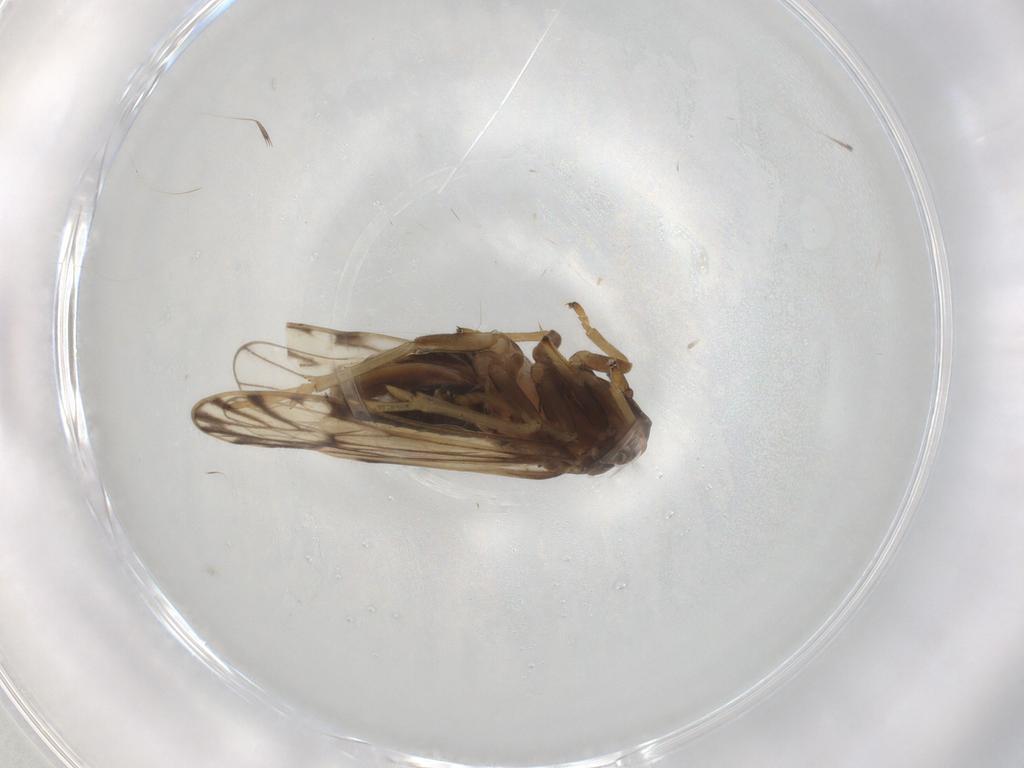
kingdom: Animalia
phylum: Arthropoda
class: Insecta
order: Hemiptera
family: Delphacidae
